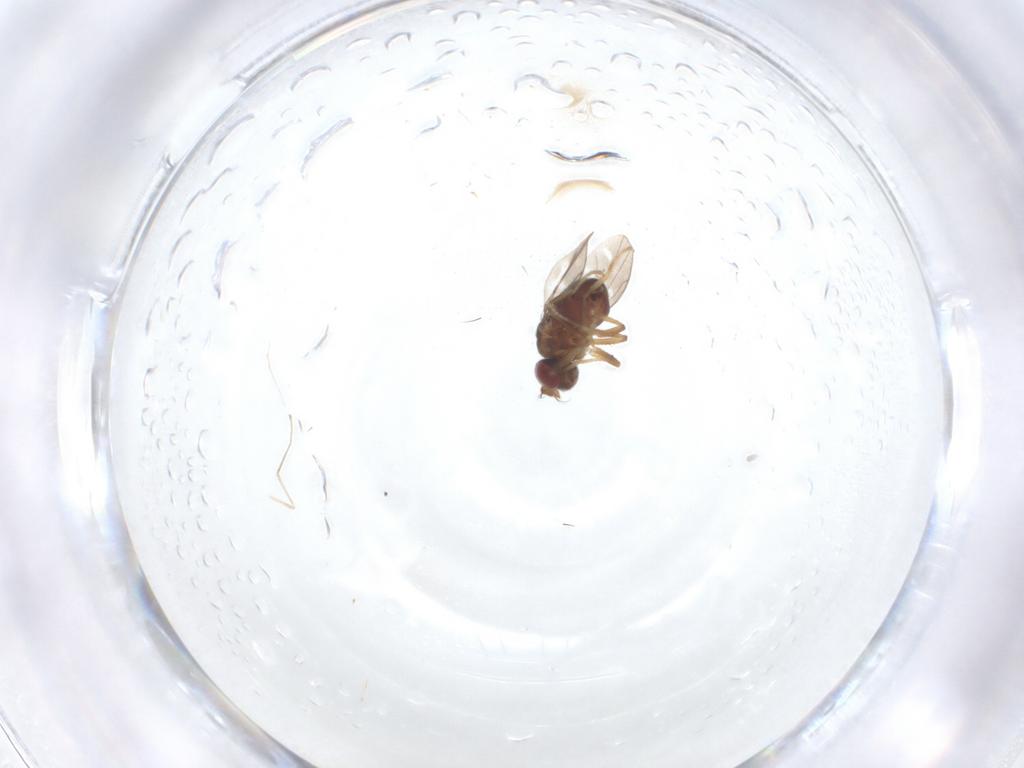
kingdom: Animalia
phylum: Arthropoda
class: Insecta
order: Diptera
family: Ephydridae
